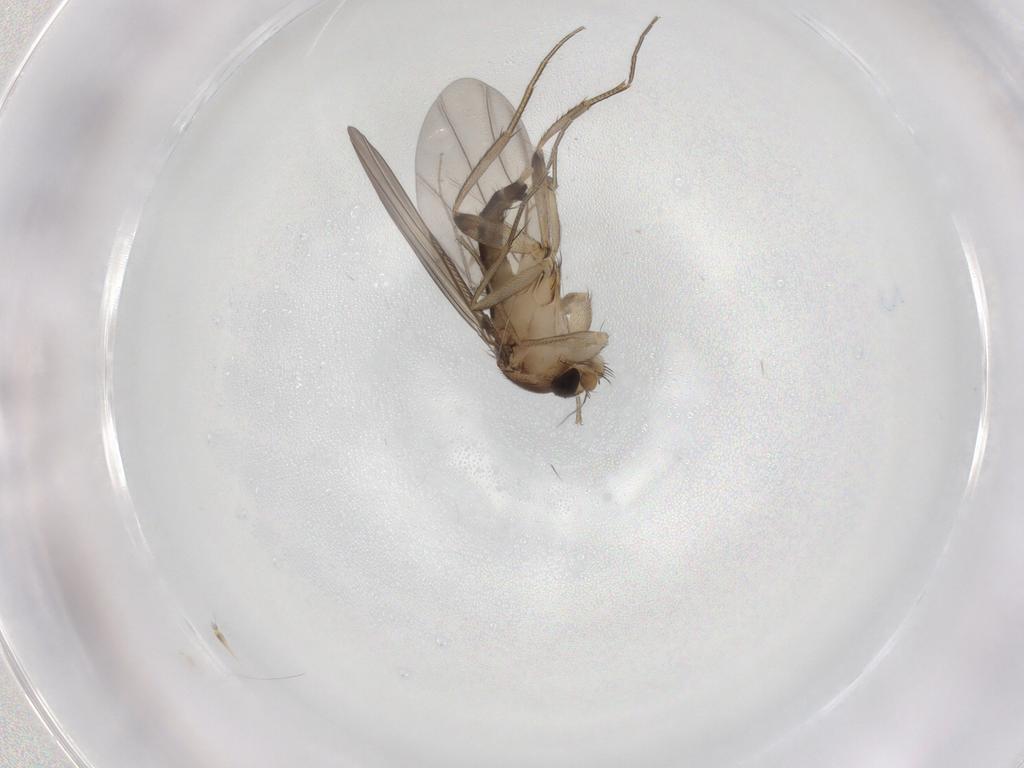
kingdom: Animalia
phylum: Arthropoda
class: Insecta
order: Diptera
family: Phoridae
